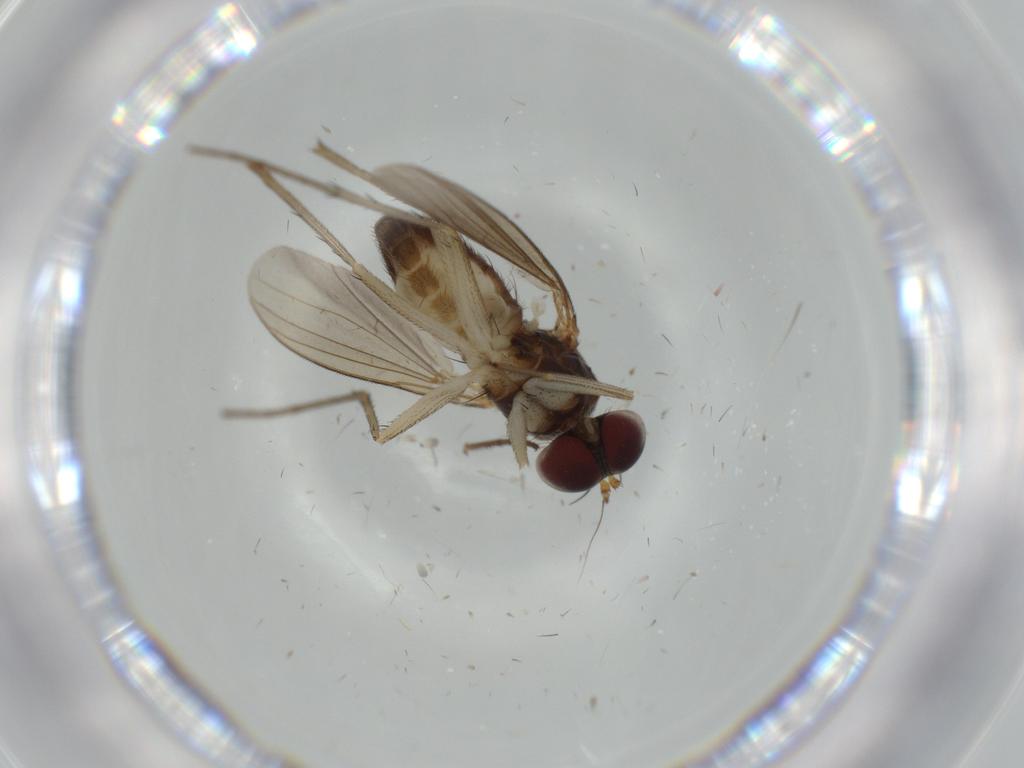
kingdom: Animalia
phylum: Arthropoda
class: Insecta
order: Diptera
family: Dolichopodidae
